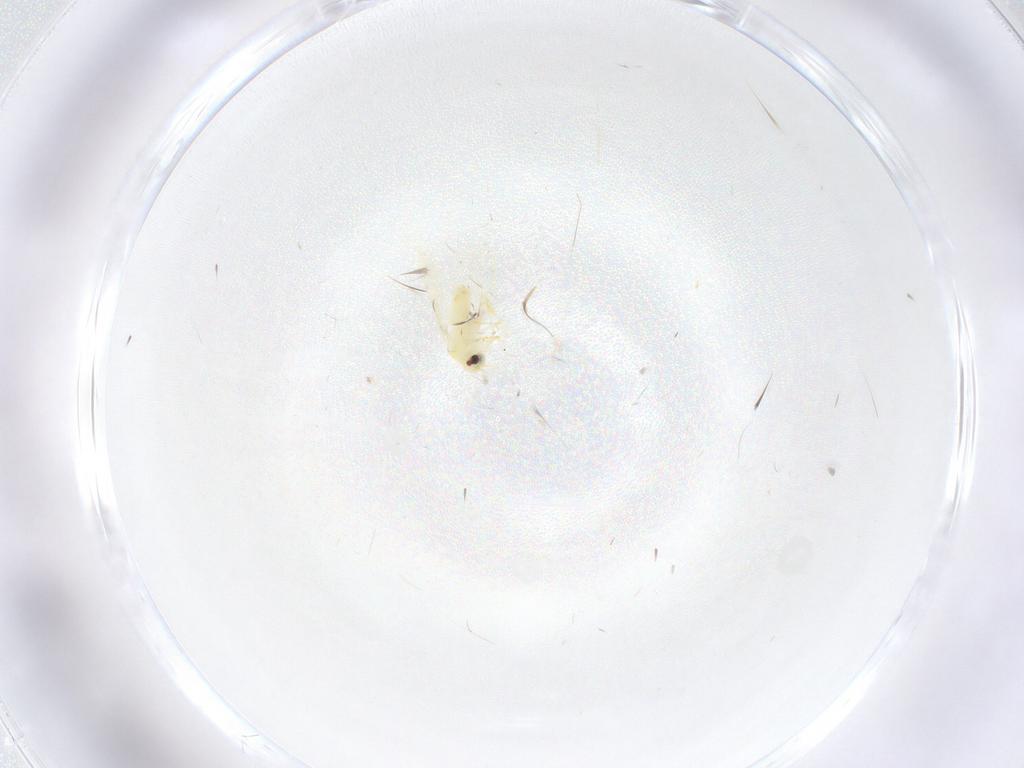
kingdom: Animalia
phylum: Arthropoda
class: Insecta
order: Hemiptera
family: Aleyrodidae
